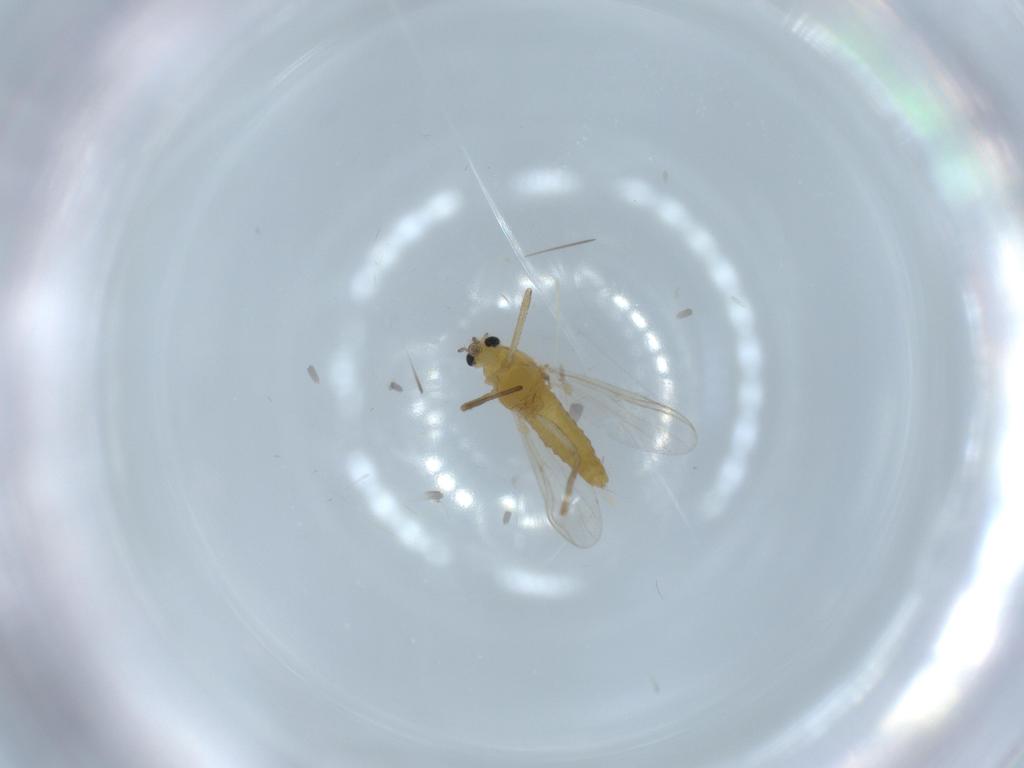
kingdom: Animalia
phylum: Arthropoda
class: Insecta
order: Diptera
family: Chironomidae
